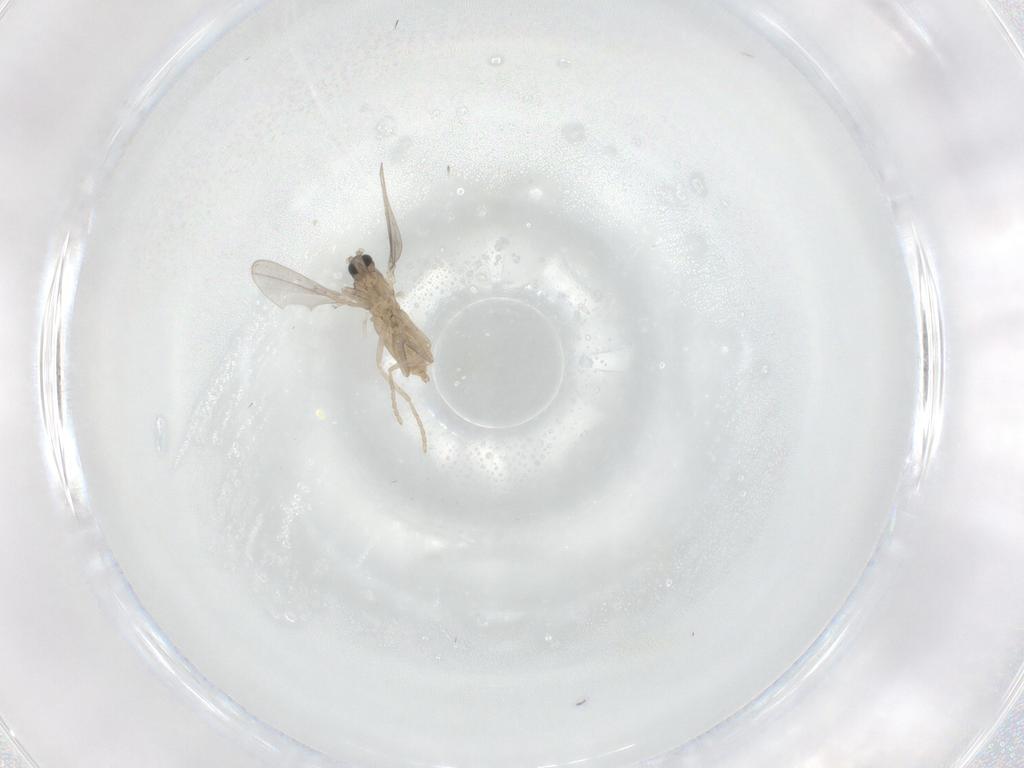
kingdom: Animalia
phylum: Arthropoda
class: Insecta
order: Diptera
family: Cecidomyiidae
